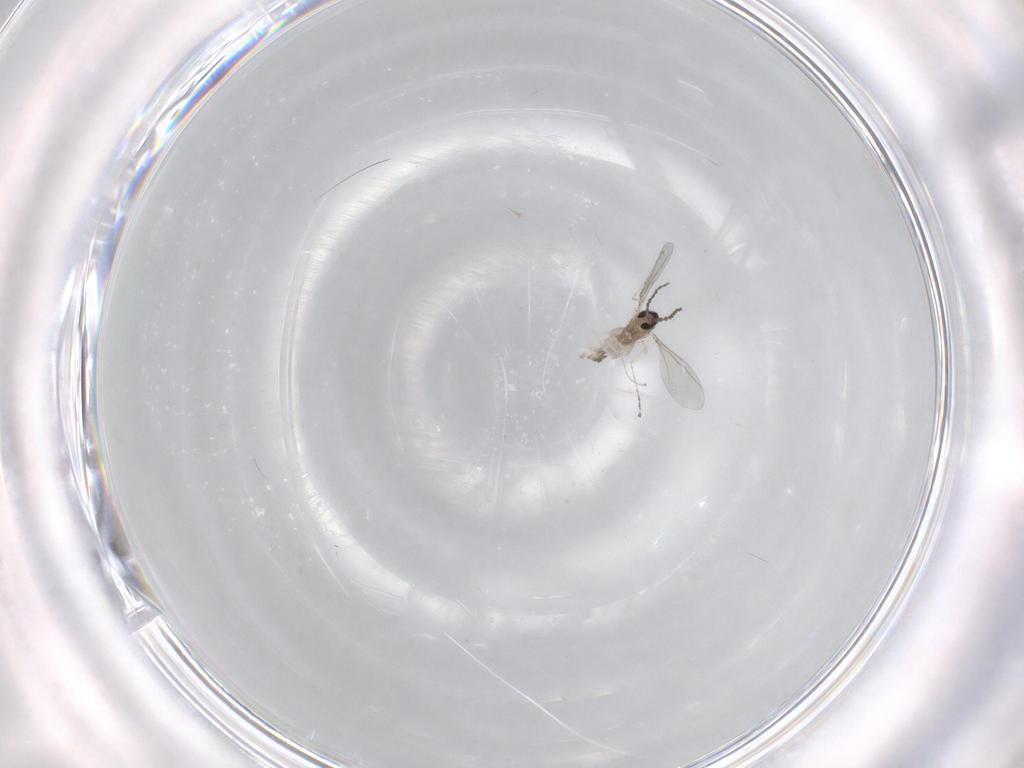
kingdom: Animalia
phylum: Arthropoda
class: Insecta
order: Diptera
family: Cecidomyiidae
